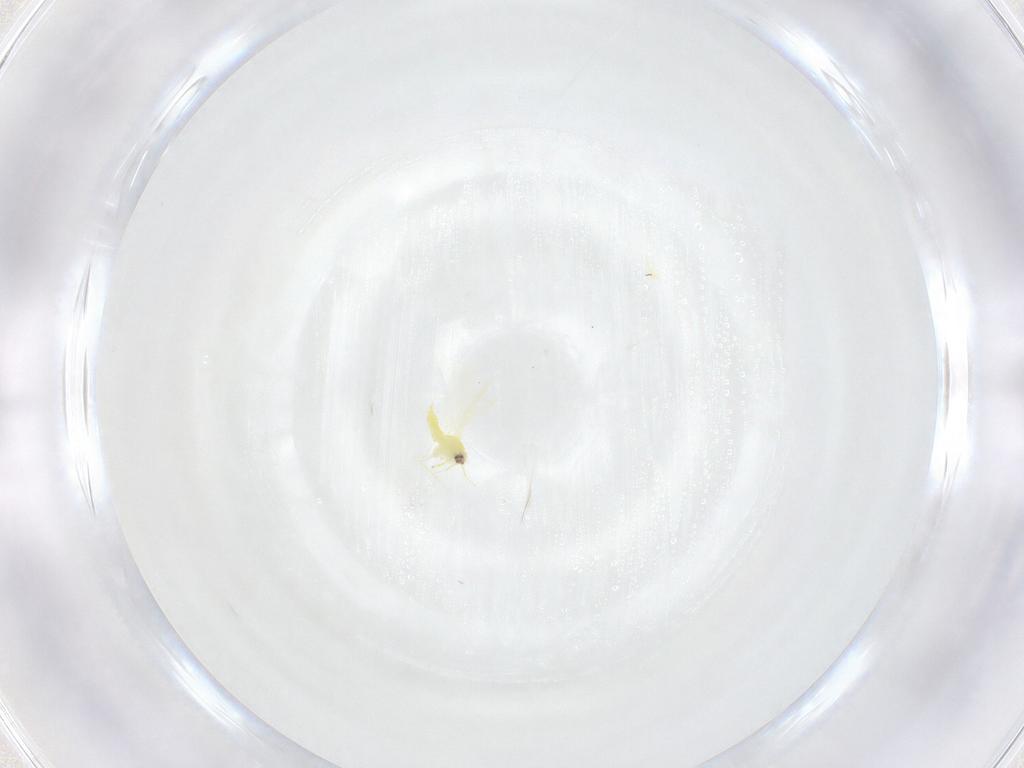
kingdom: Animalia
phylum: Arthropoda
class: Insecta
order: Hemiptera
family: Aleyrodidae
